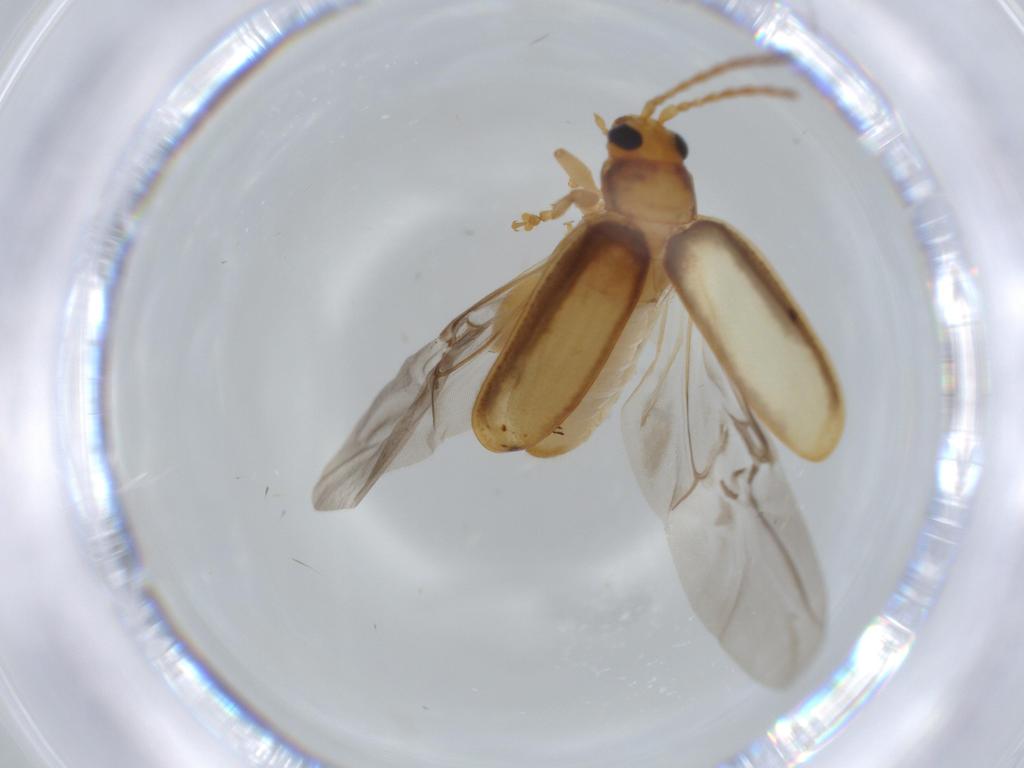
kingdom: Animalia
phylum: Arthropoda
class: Insecta
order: Coleoptera
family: Chrysomelidae
